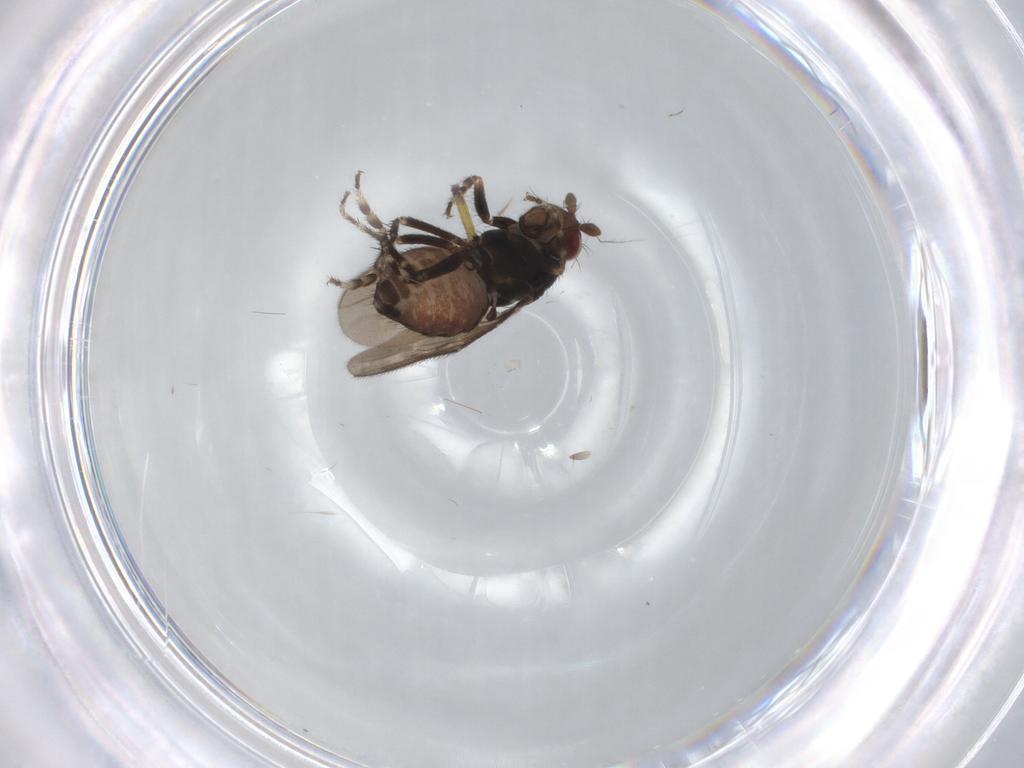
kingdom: Animalia
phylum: Arthropoda
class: Insecta
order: Diptera
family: Sphaeroceridae
